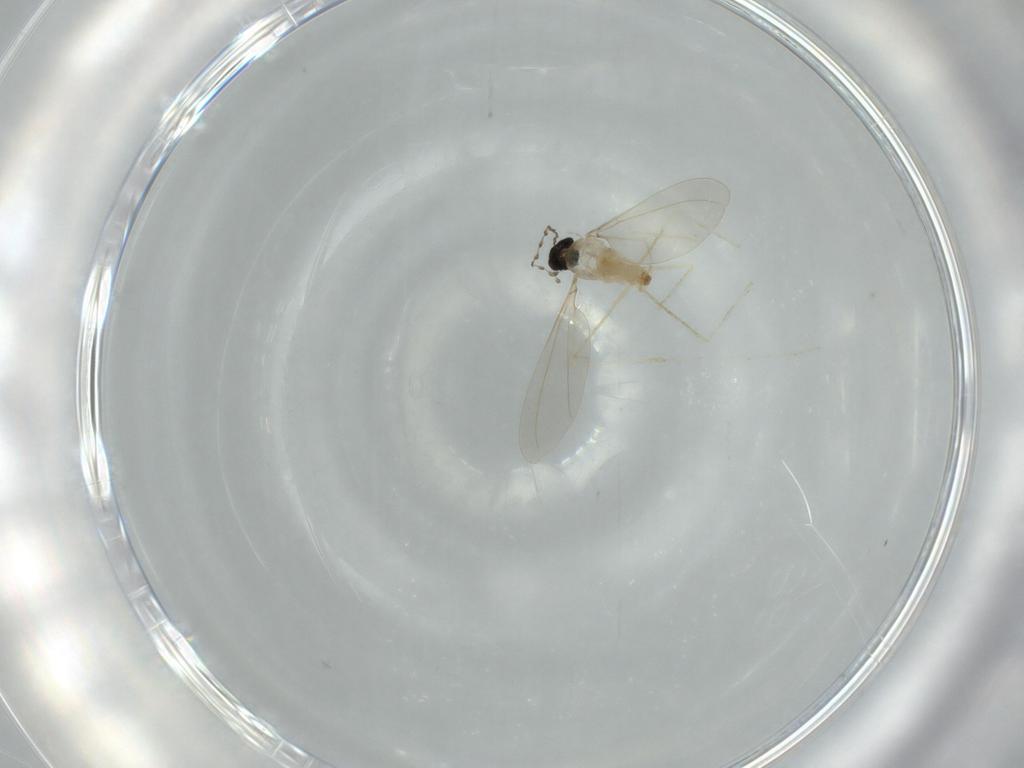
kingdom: Animalia
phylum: Arthropoda
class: Insecta
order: Diptera
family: Cecidomyiidae
